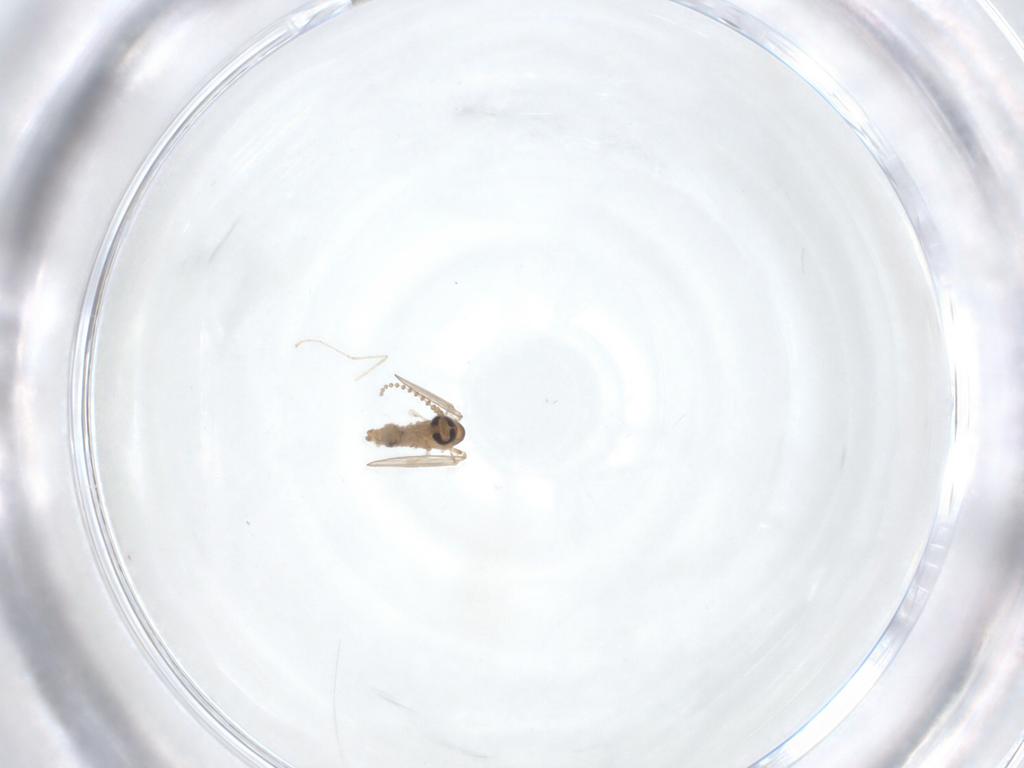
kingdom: Animalia
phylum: Arthropoda
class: Insecta
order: Diptera
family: Psychodidae
